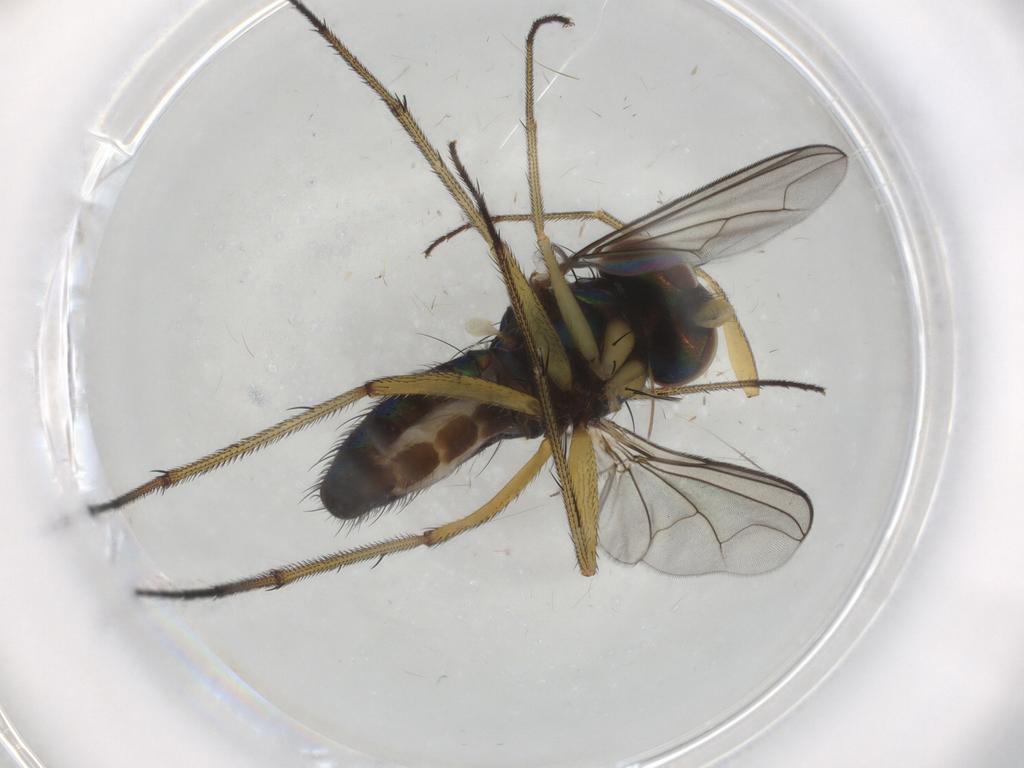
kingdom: Animalia
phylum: Arthropoda
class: Insecta
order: Diptera
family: Dolichopodidae
